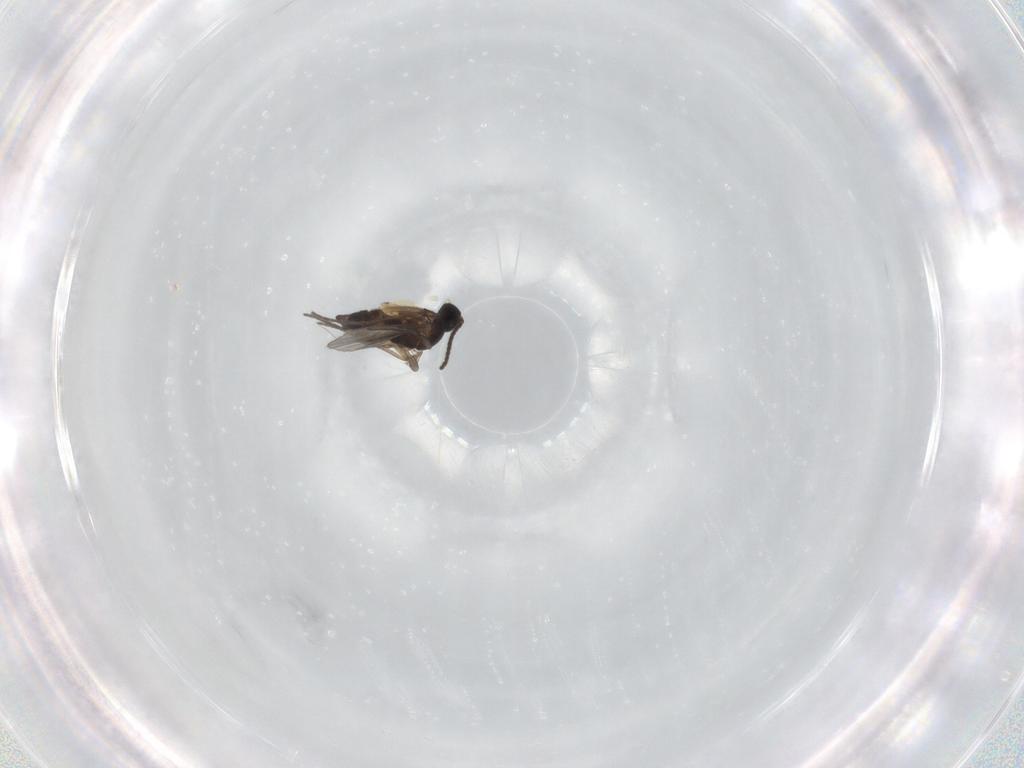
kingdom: Animalia
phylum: Arthropoda
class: Insecta
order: Diptera
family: Sciaridae
